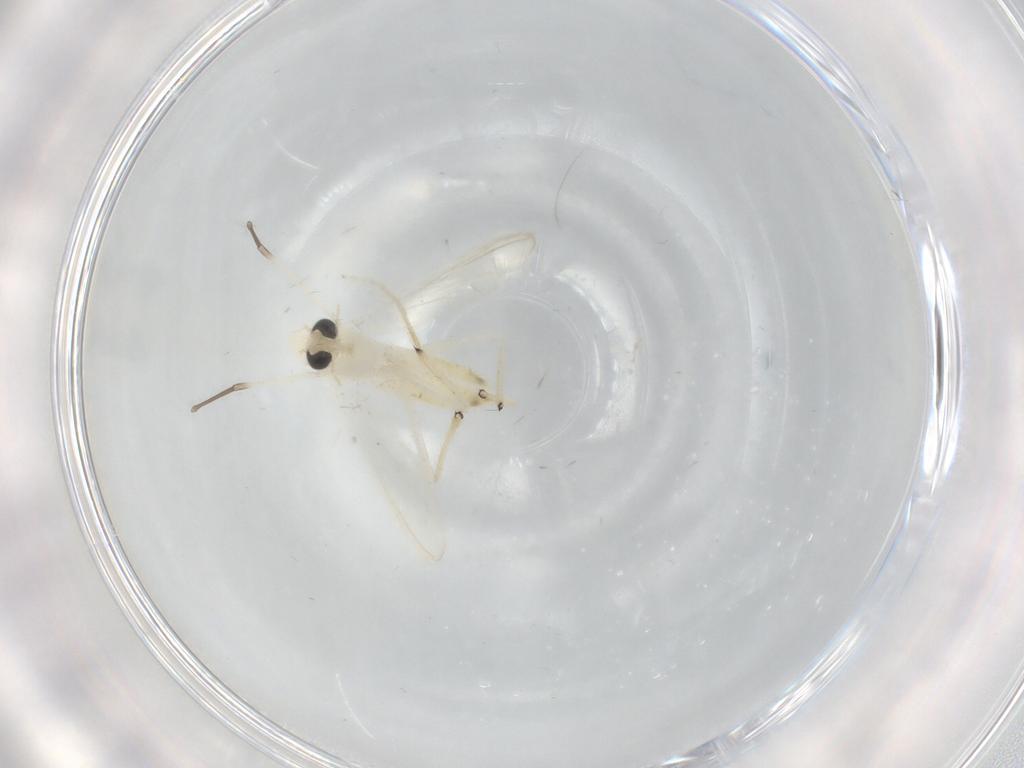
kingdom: Animalia
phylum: Arthropoda
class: Insecta
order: Diptera
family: Chironomidae
